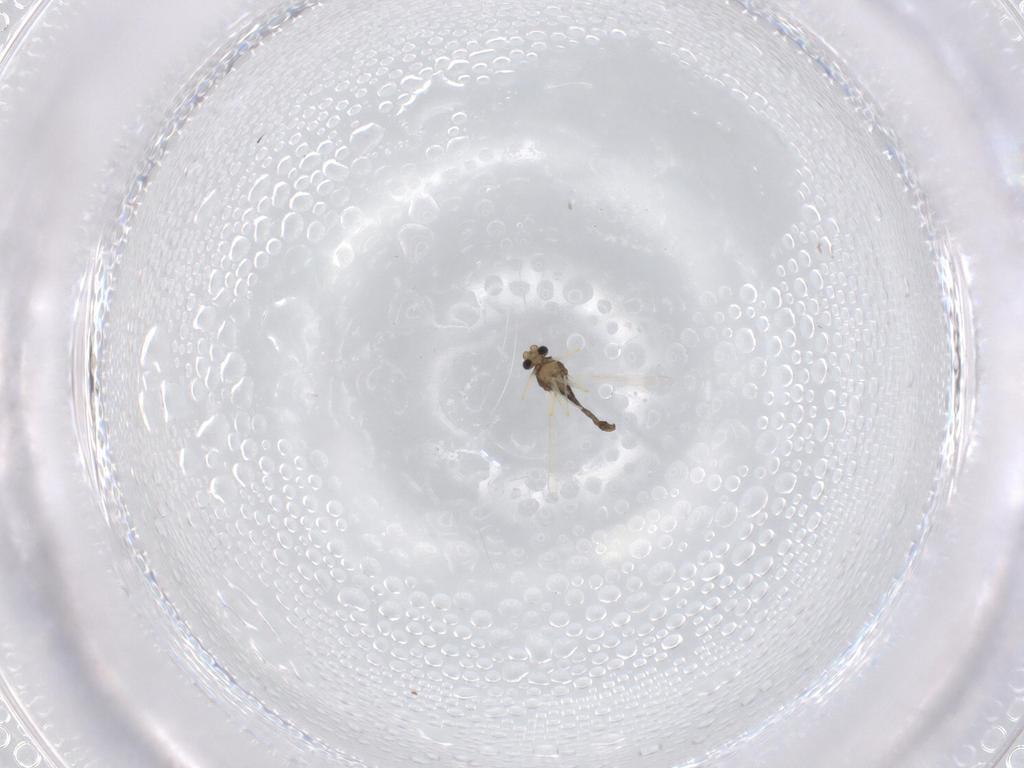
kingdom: Animalia
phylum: Arthropoda
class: Insecta
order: Diptera
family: Chironomidae
